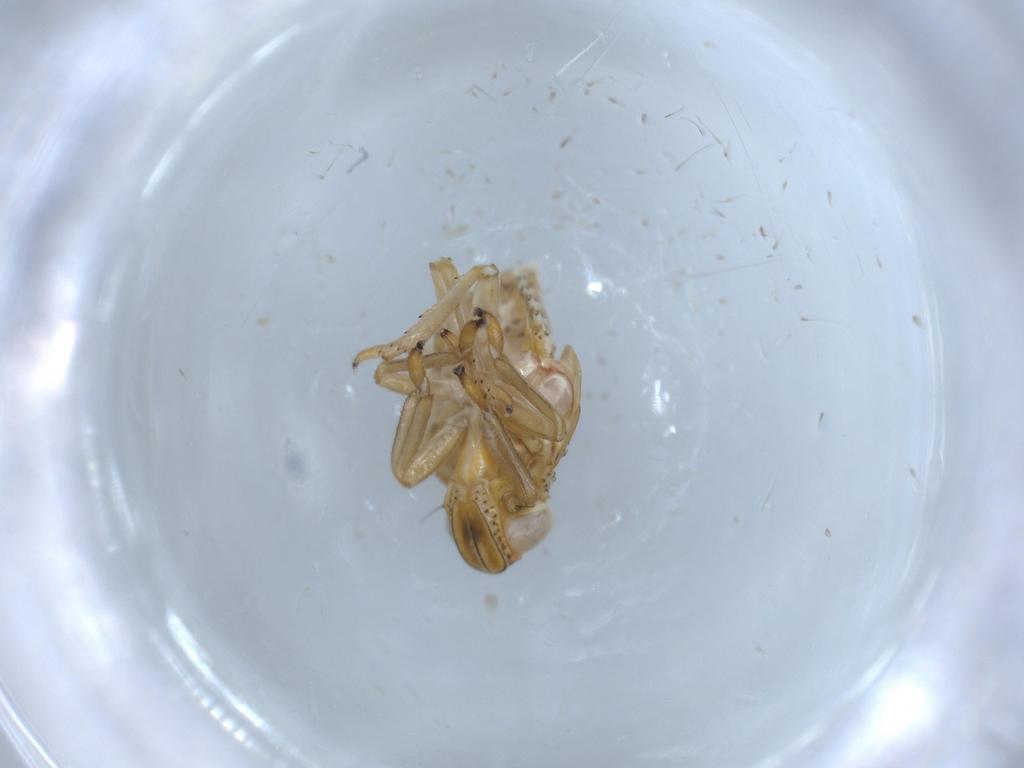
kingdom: Animalia
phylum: Arthropoda
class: Insecta
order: Hemiptera
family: Issidae
